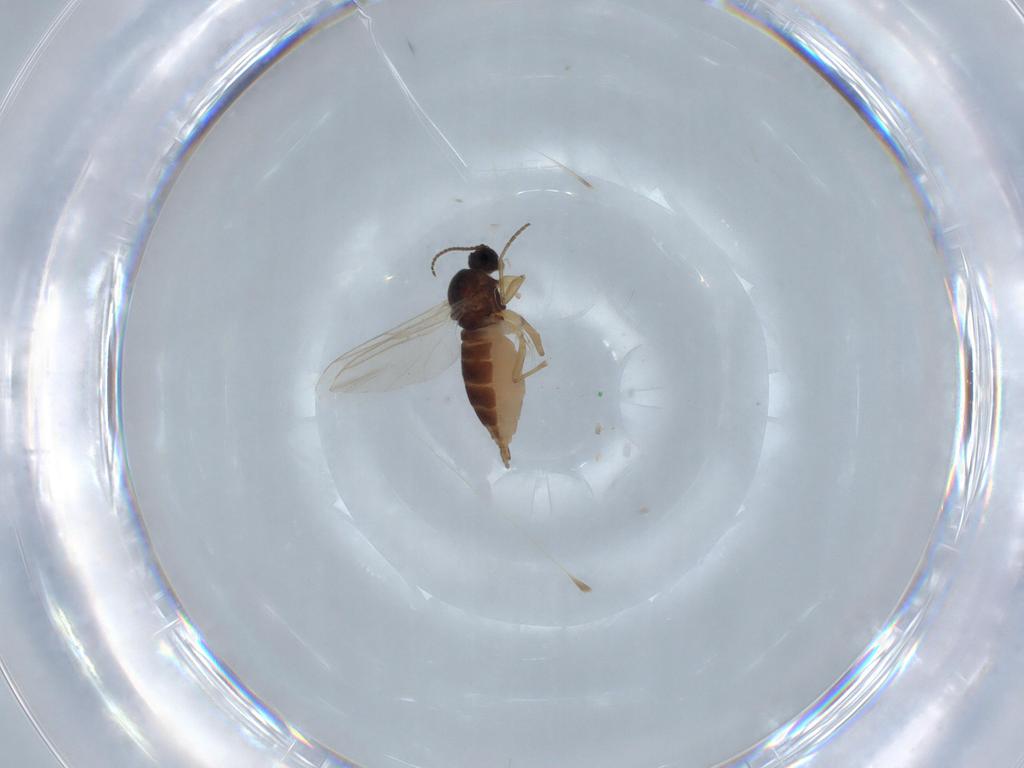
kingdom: Animalia
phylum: Arthropoda
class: Insecta
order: Diptera
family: Sciaridae
